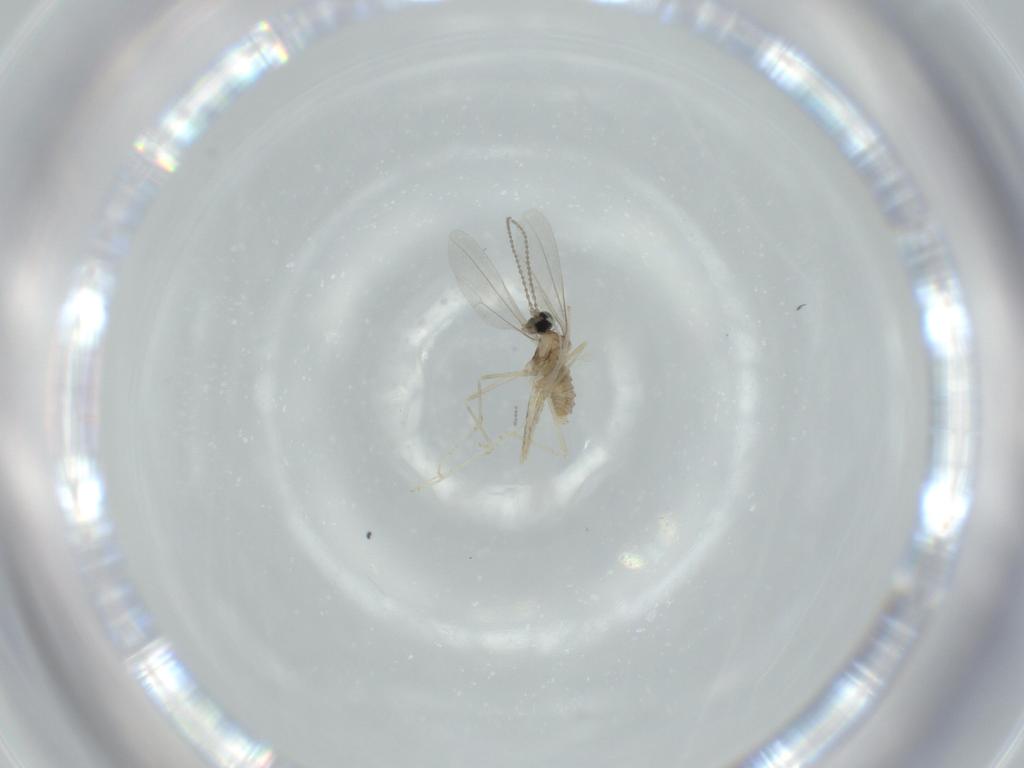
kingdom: Animalia
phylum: Arthropoda
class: Insecta
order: Diptera
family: Cecidomyiidae
